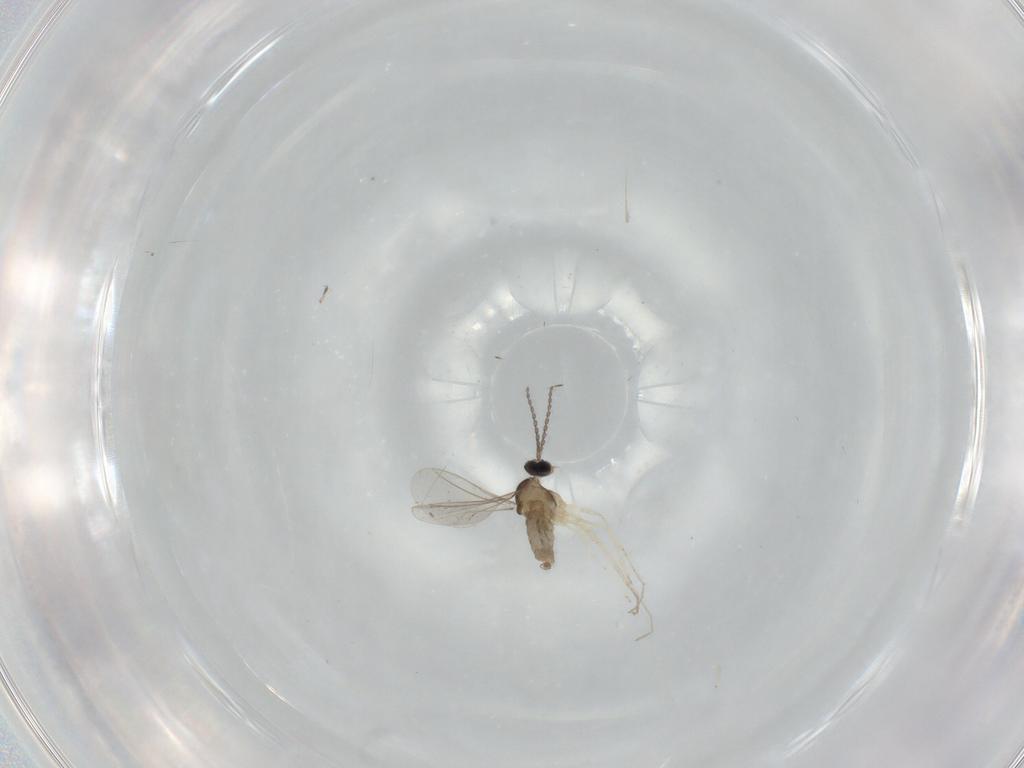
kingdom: Animalia
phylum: Arthropoda
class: Insecta
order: Diptera
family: Cecidomyiidae
